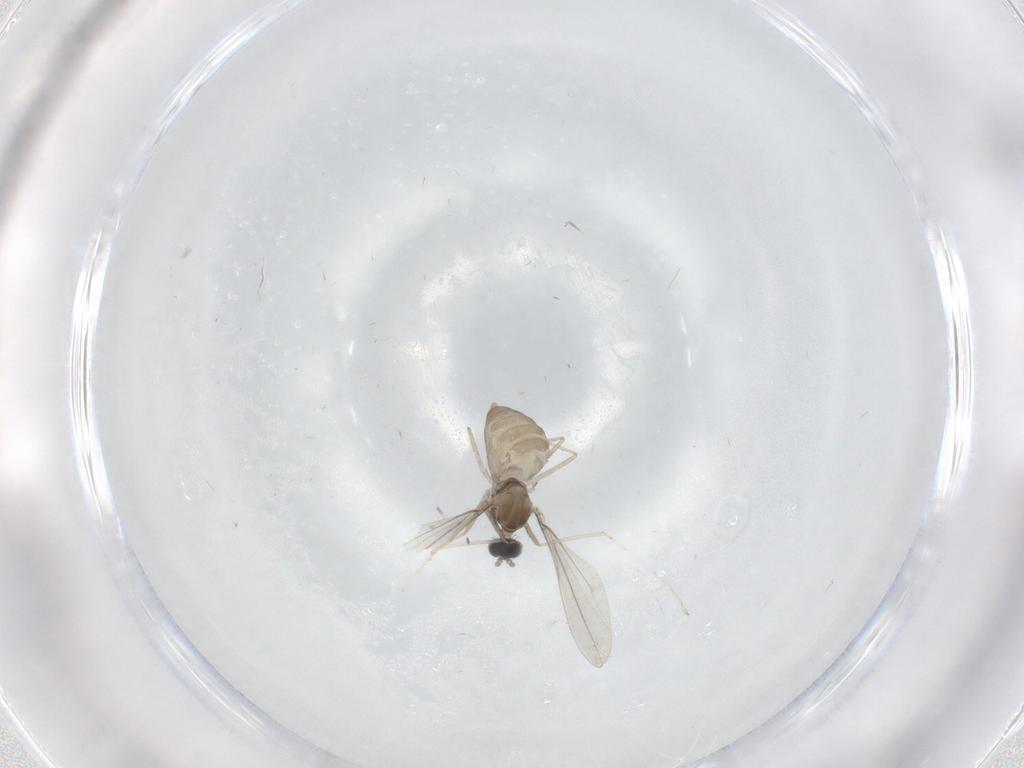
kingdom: Animalia
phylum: Arthropoda
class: Insecta
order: Diptera
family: Cecidomyiidae
